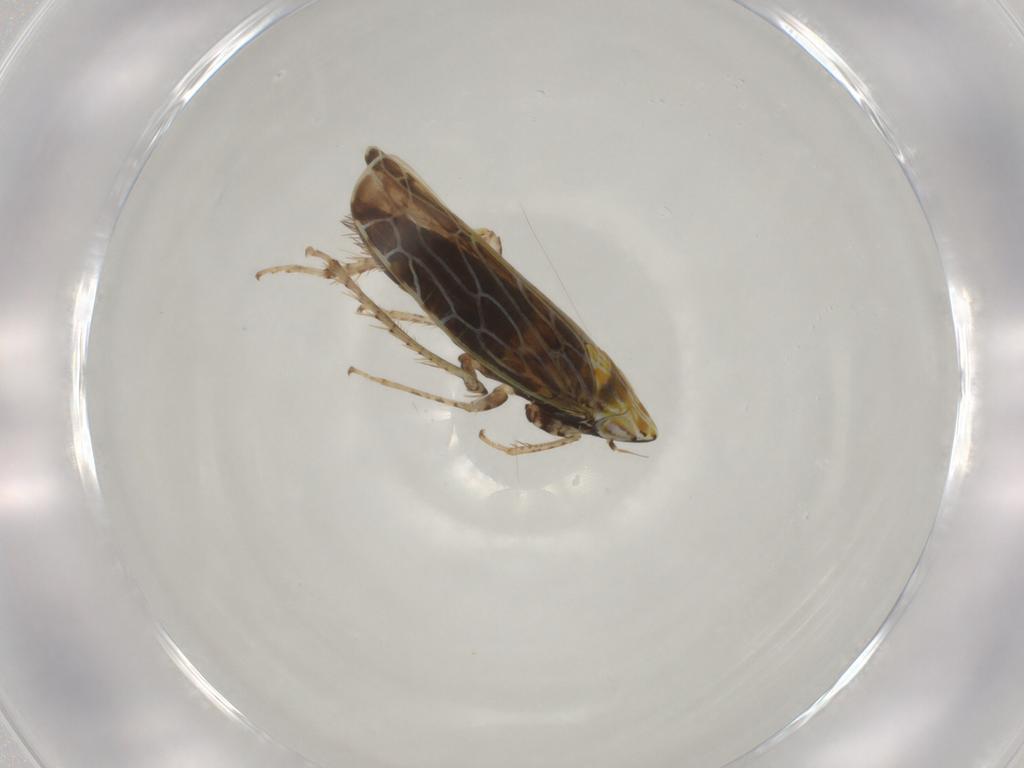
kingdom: Animalia
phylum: Arthropoda
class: Insecta
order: Hemiptera
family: Cicadellidae
